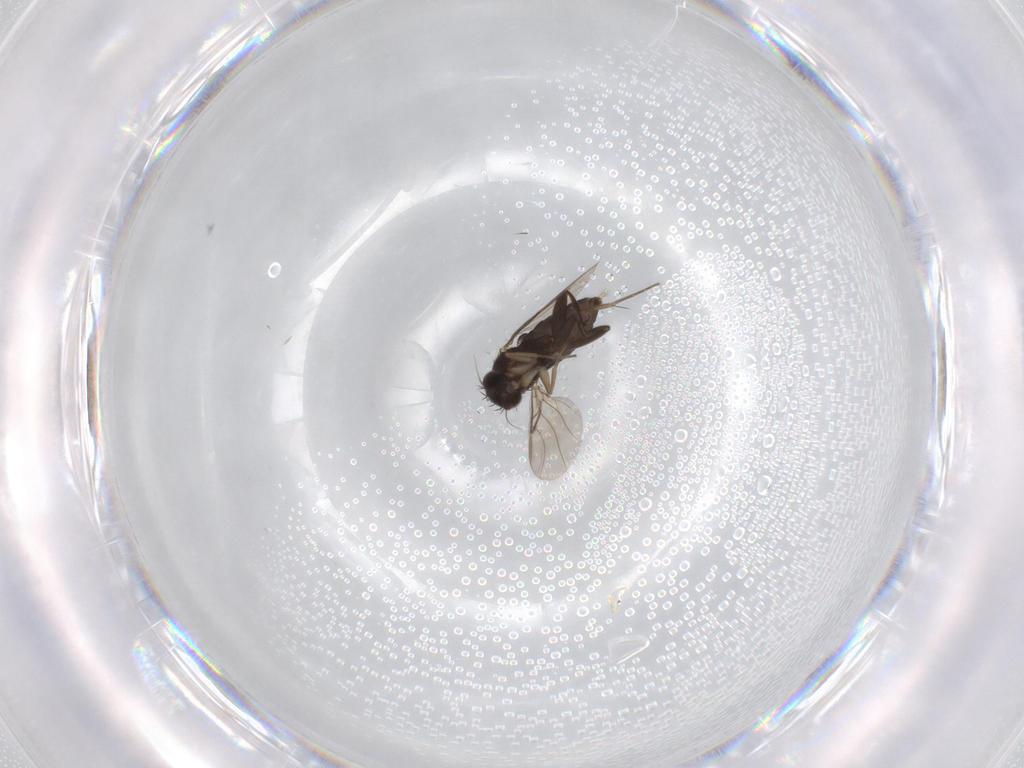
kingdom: Animalia
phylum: Arthropoda
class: Insecta
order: Diptera
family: Limoniidae
